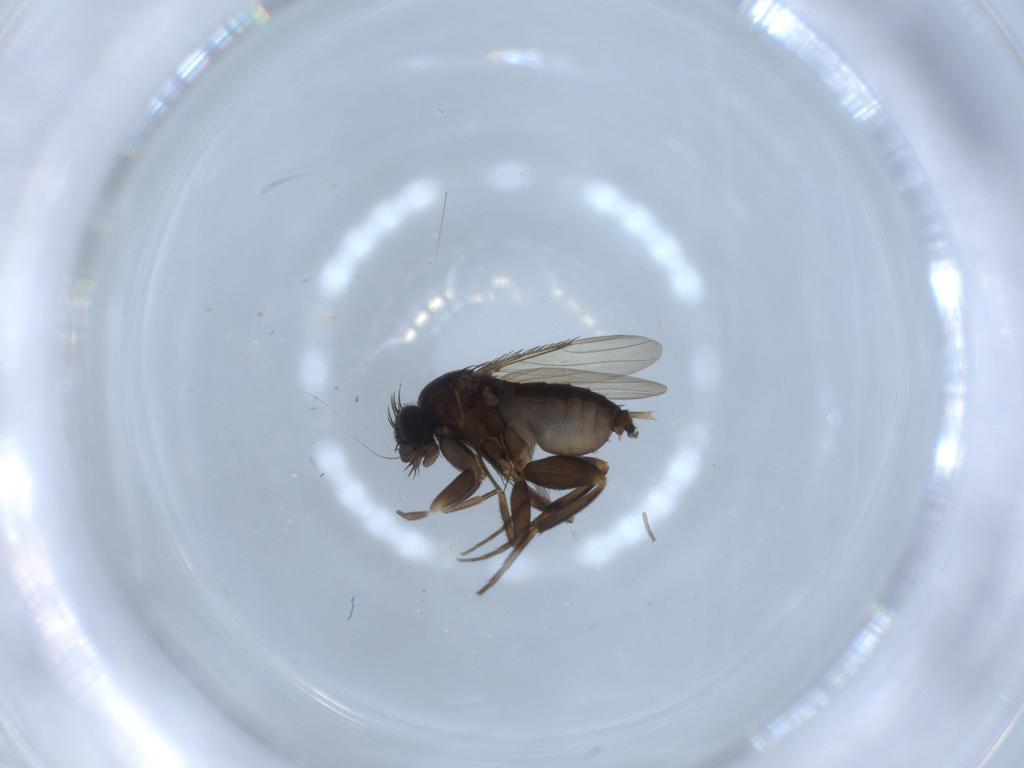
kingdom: Animalia
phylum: Arthropoda
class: Insecta
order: Diptera
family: Phoridae
